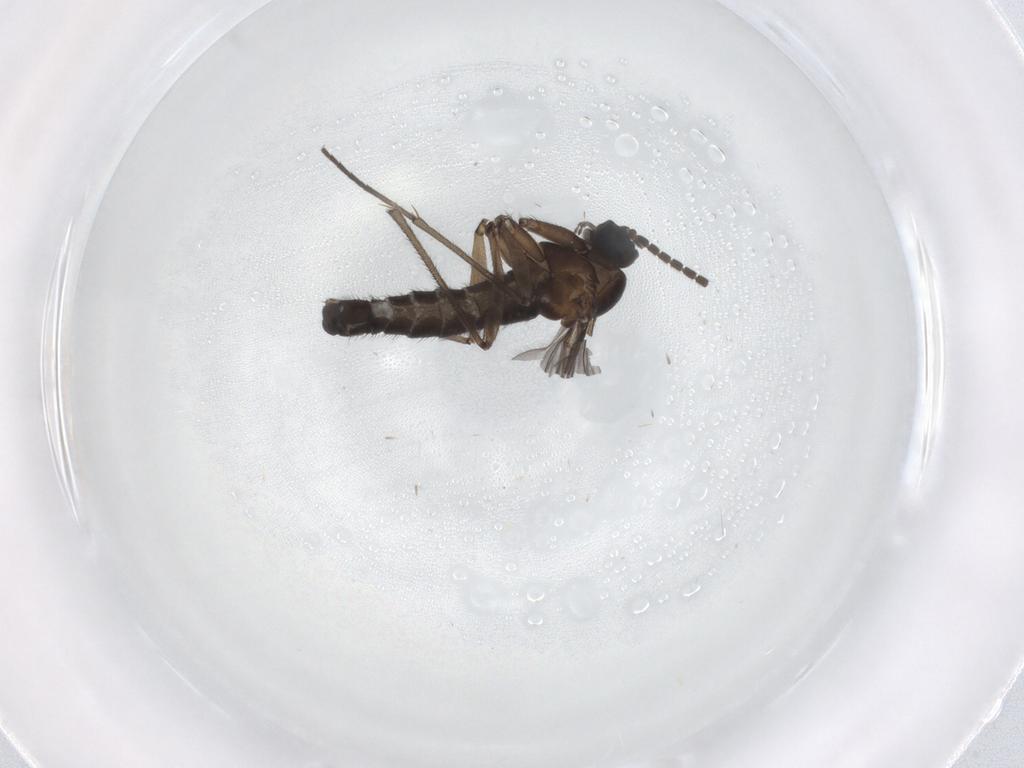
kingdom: Animalia
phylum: Arthropoda
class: Insecta
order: Diptera
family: Sciaridae
